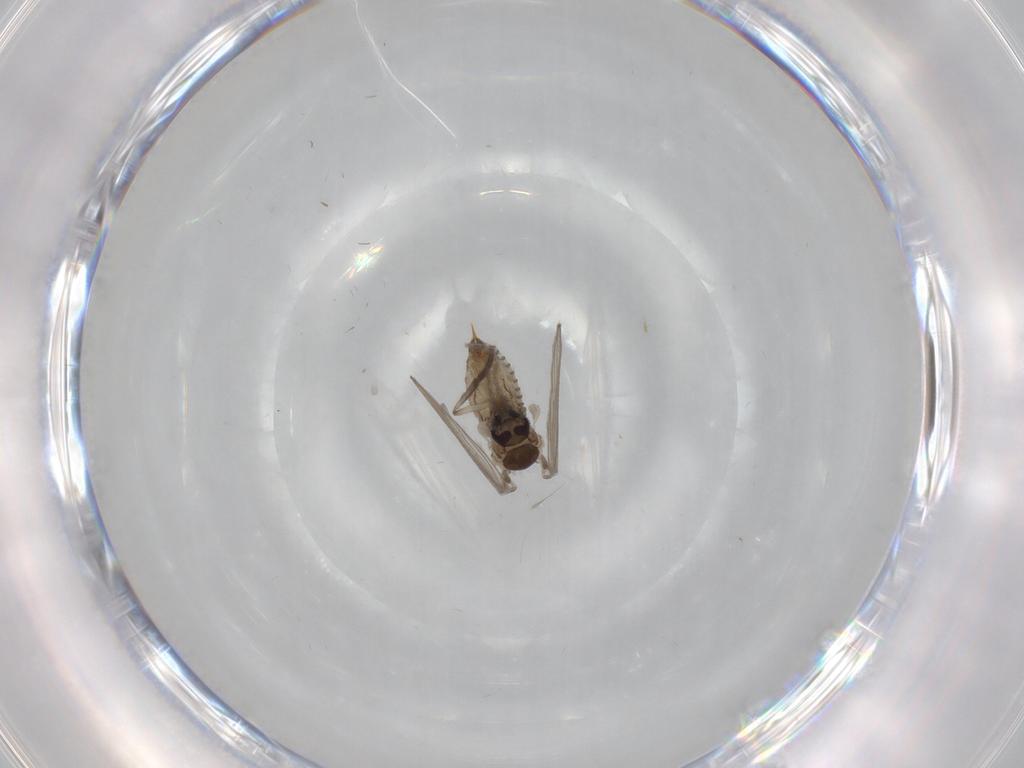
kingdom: Animalia
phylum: Arthropoda
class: Insecta
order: Diptera
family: Psychodidae
